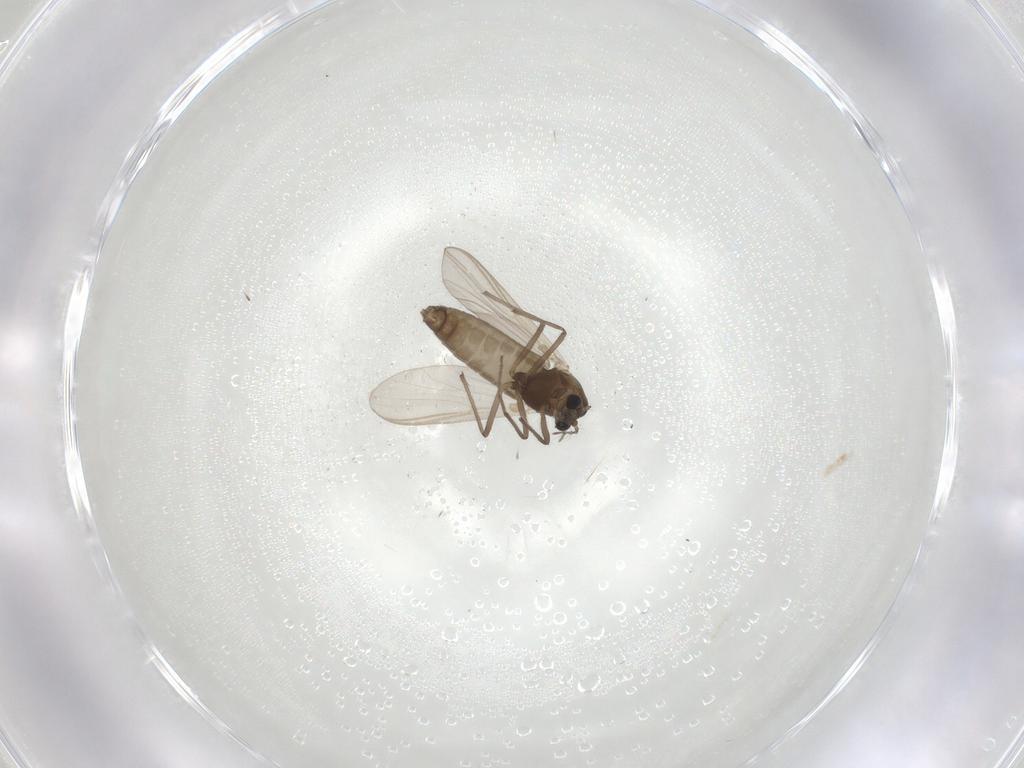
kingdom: Animalia
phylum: Arthropoda
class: Insecta
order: Diptera
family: Chironomidae
